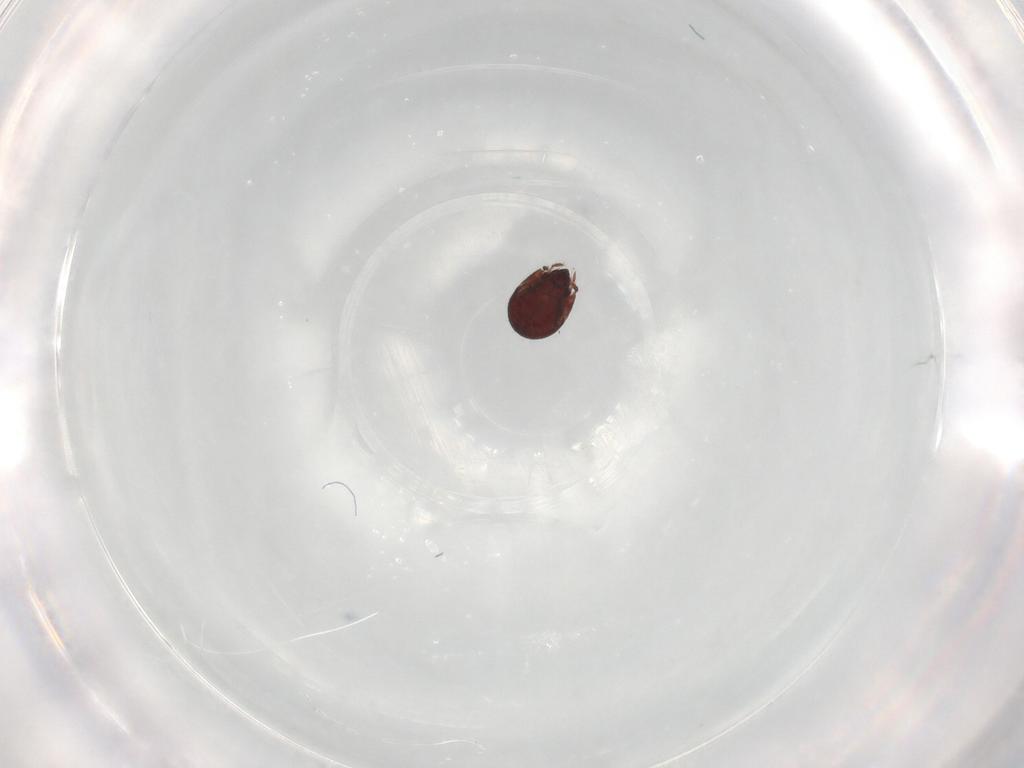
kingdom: Animalia
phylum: Arthropoda
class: Arachnida
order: Sarcoptiformes
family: Humerobatidae
